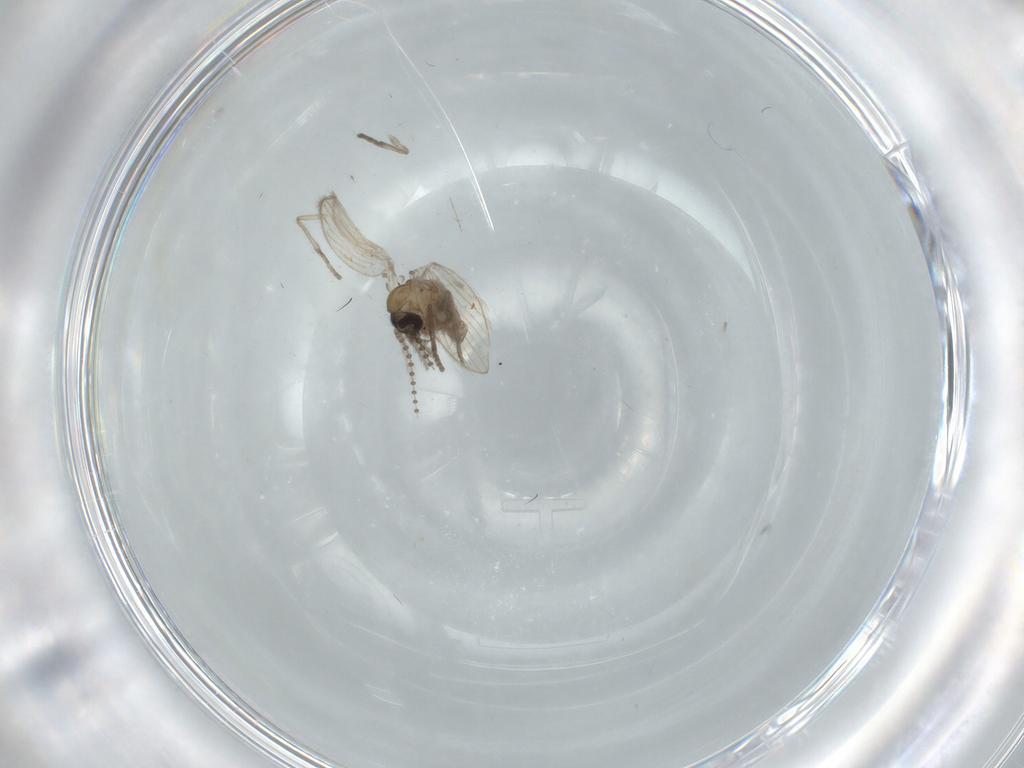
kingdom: Animalia
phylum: Arthropoda
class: Insecta
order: Diptera
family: Psychodidae
